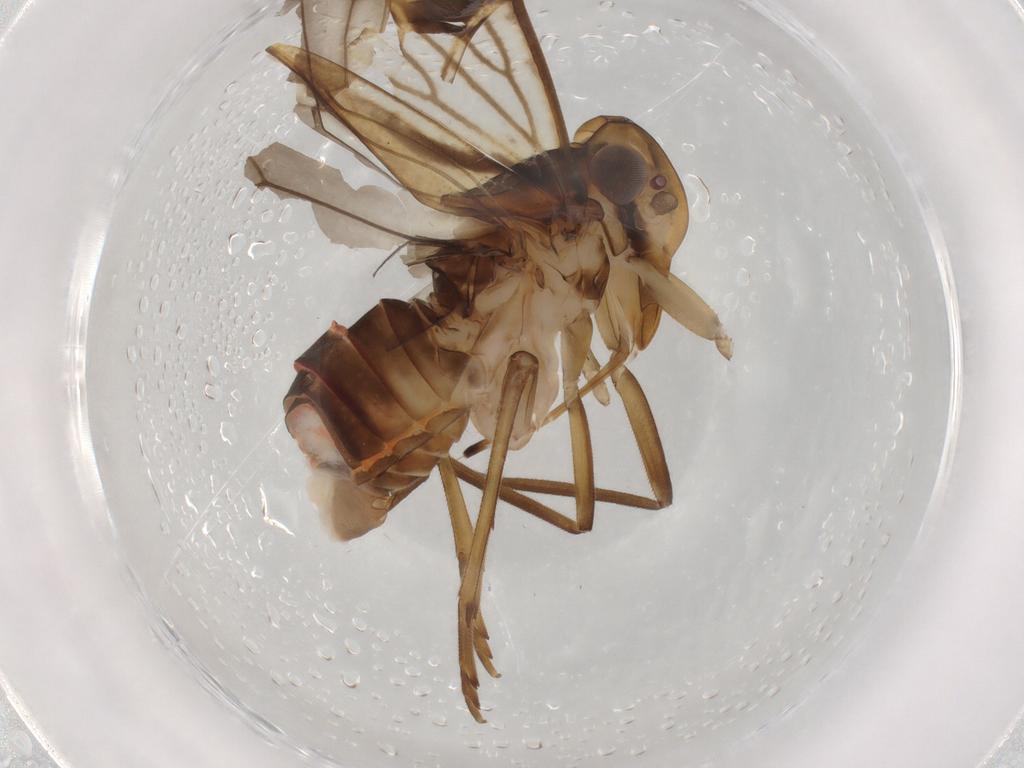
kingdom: Animalia
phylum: Arthropoda
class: Insecta
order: Hemiptera
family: Cixiidae
